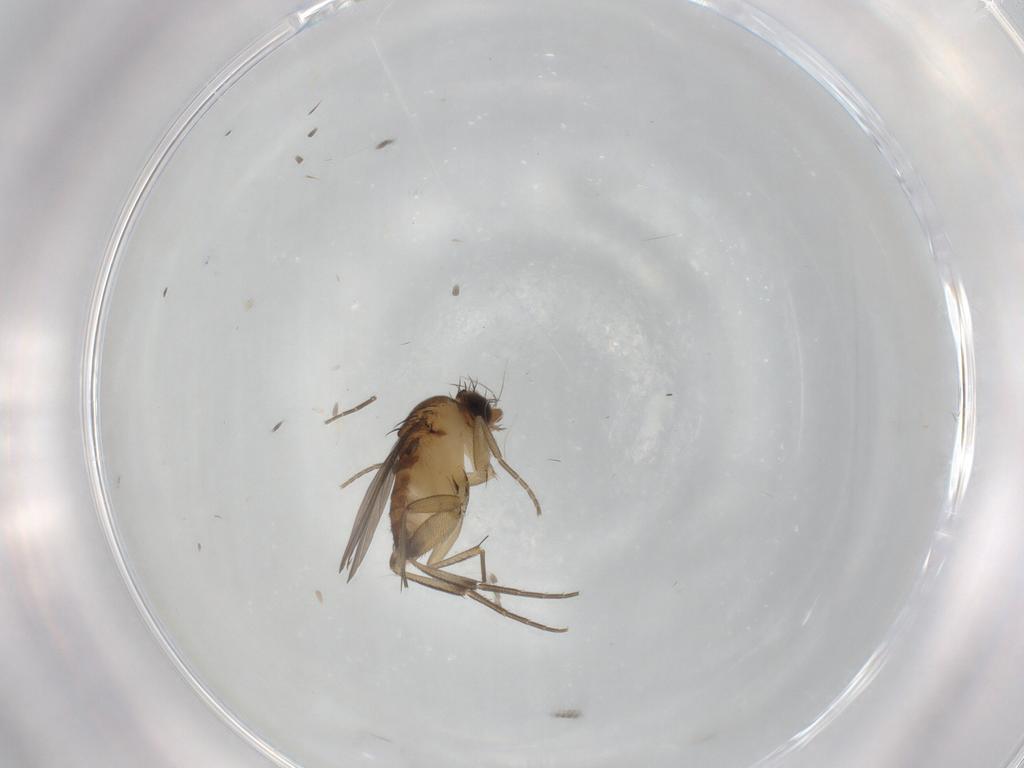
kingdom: Animalia
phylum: Arthropoda
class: Insecta
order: Diptera
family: Phoridae
